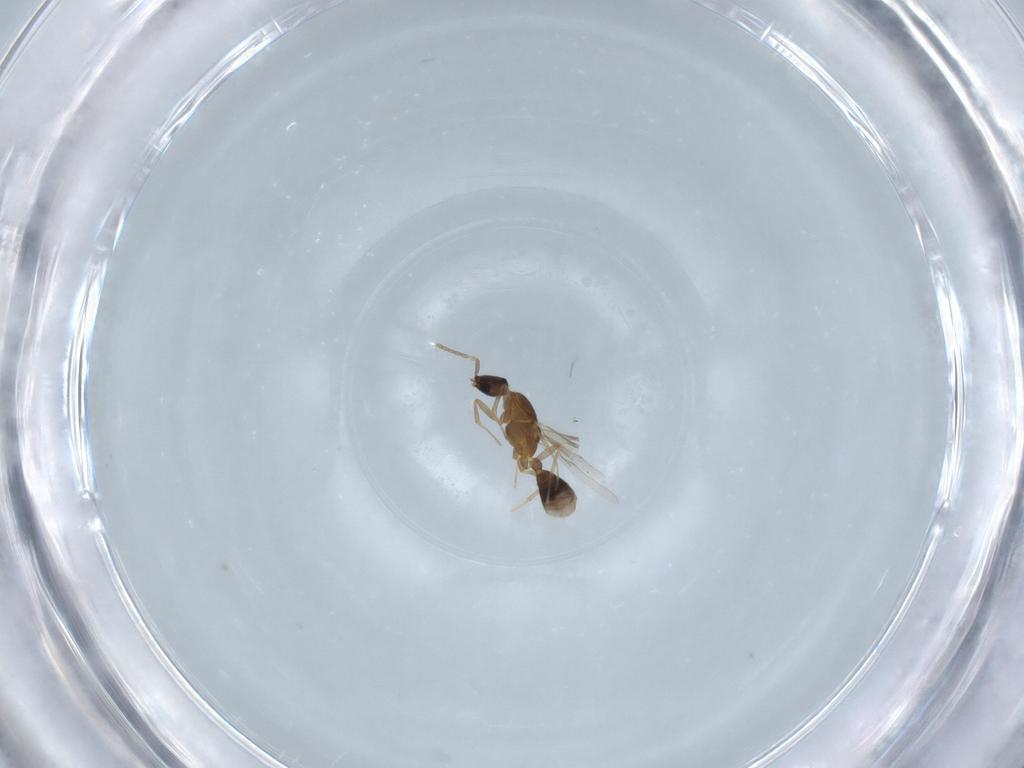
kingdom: Animalia
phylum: Arthropoda
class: Insecta
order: Hymenoptera
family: Formicidae
